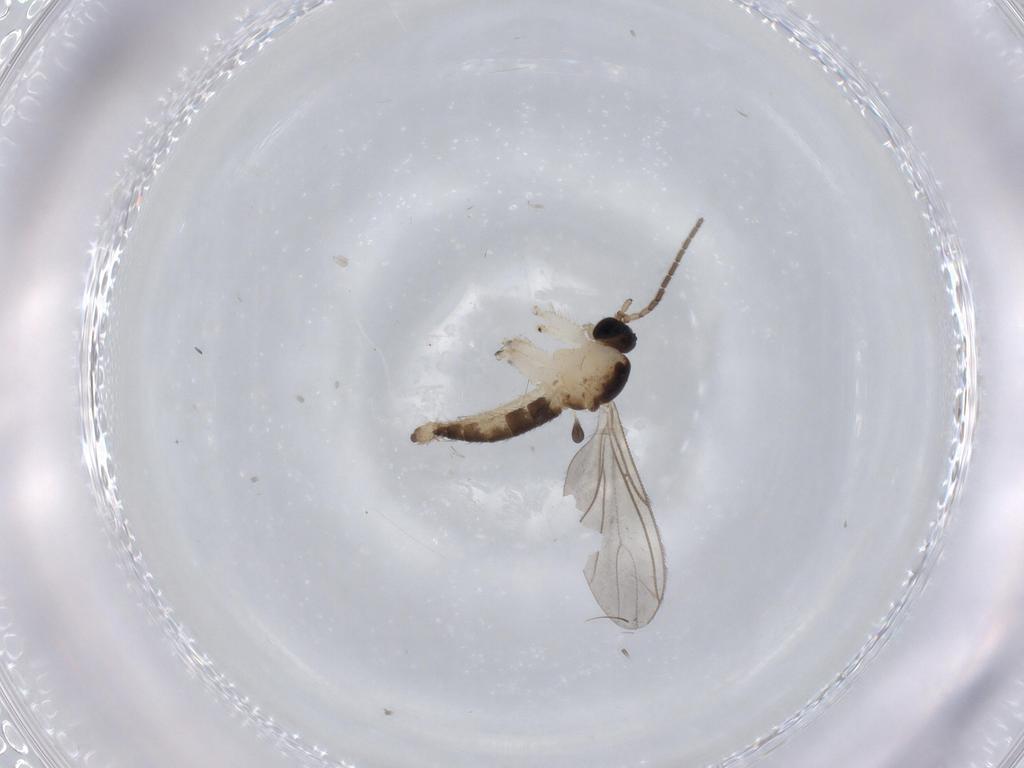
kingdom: Animalia
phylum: Arthropoda
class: Insecta
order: Diptera
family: Sciaridae
